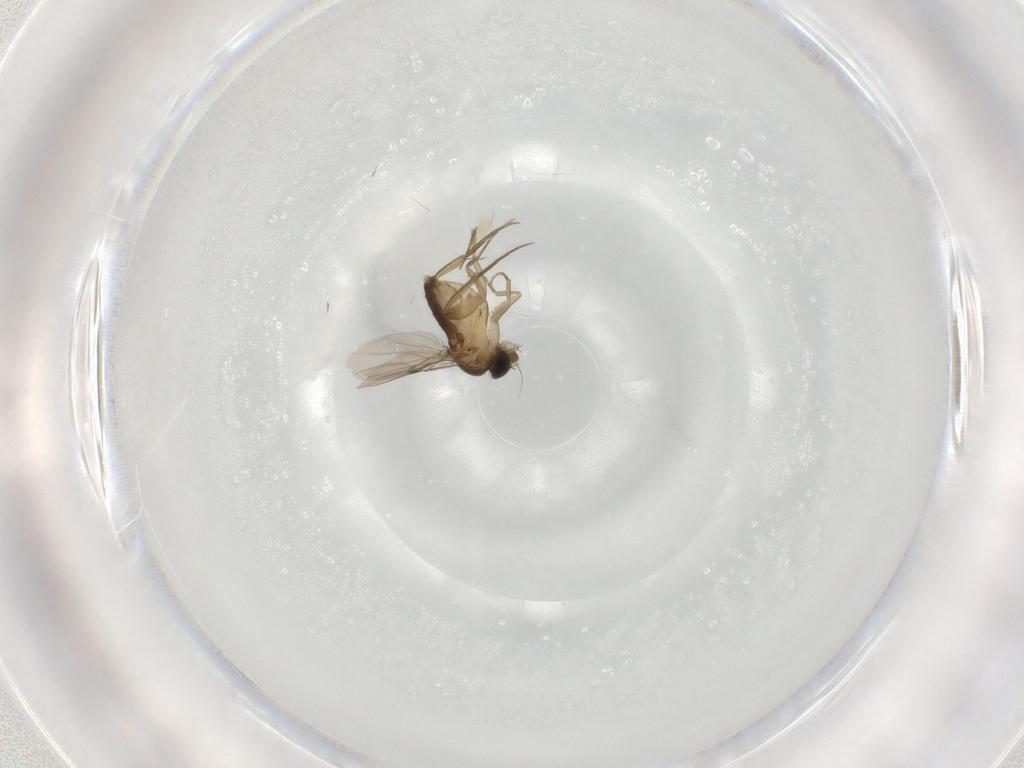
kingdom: Animalia
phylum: Arthropoda
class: Insecta
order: Diptera
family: Phoridae
